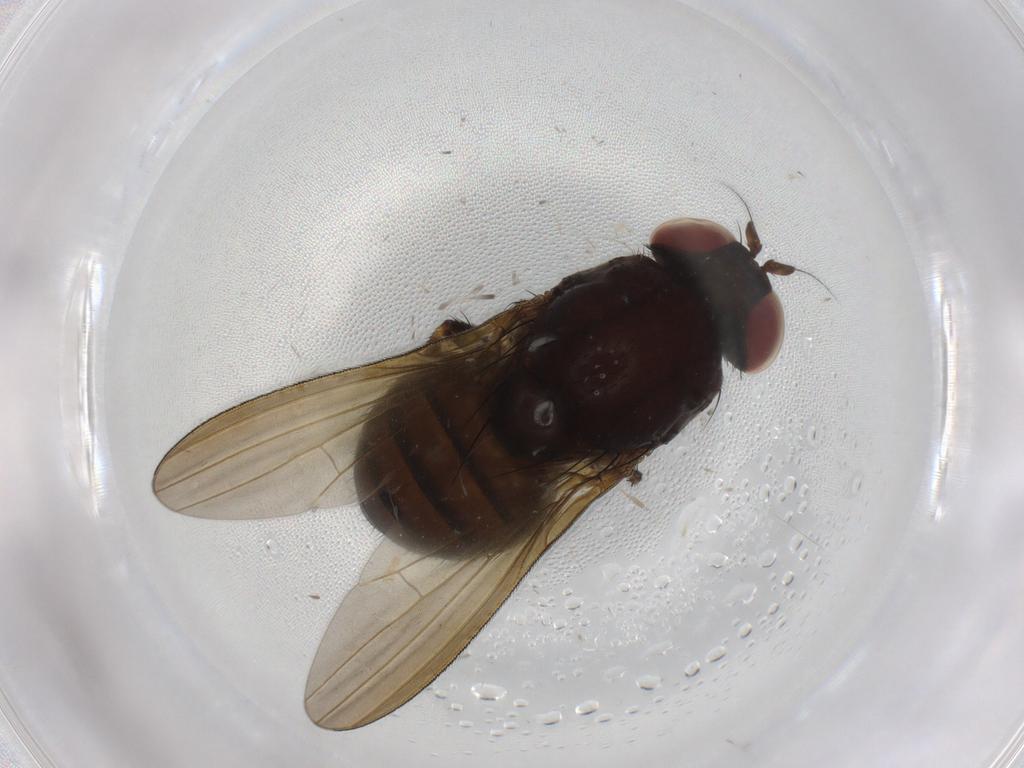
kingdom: Animalia
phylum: Arthropoda
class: Insecta
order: Diptera
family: Lauxaniidae
